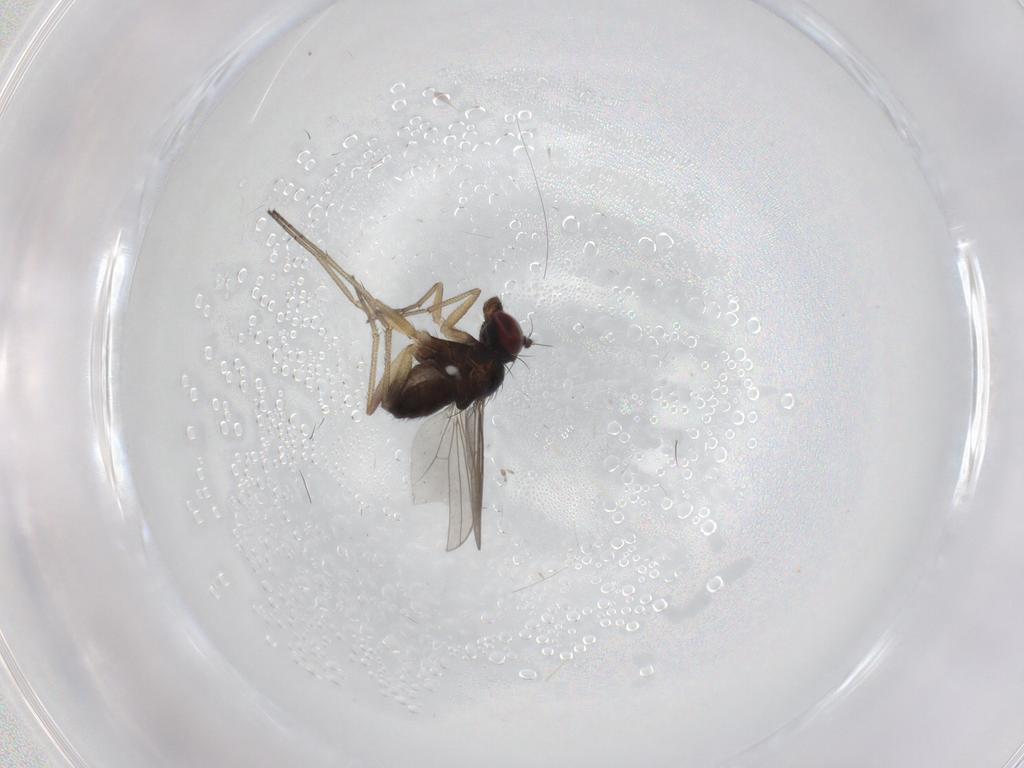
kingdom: Animalia
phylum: Arthropoda
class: Insecta
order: Diptera
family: Dolichopodidae
